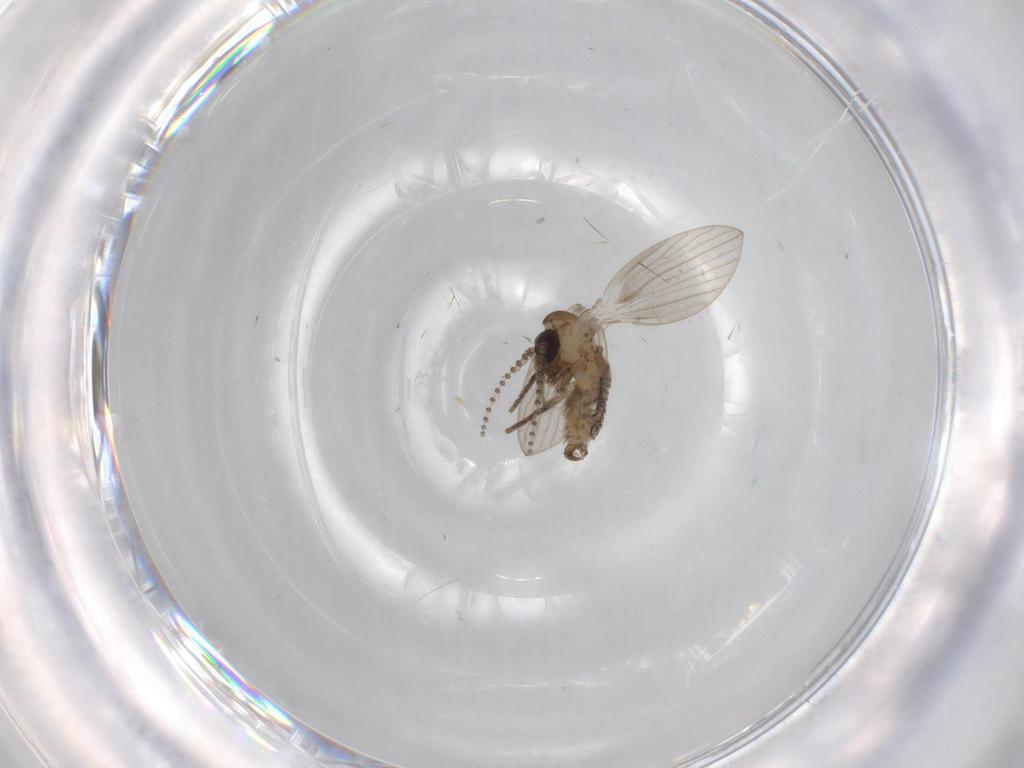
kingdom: Animalia
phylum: Arthropoda
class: Insecta
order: Diptera
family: Psychodidae
